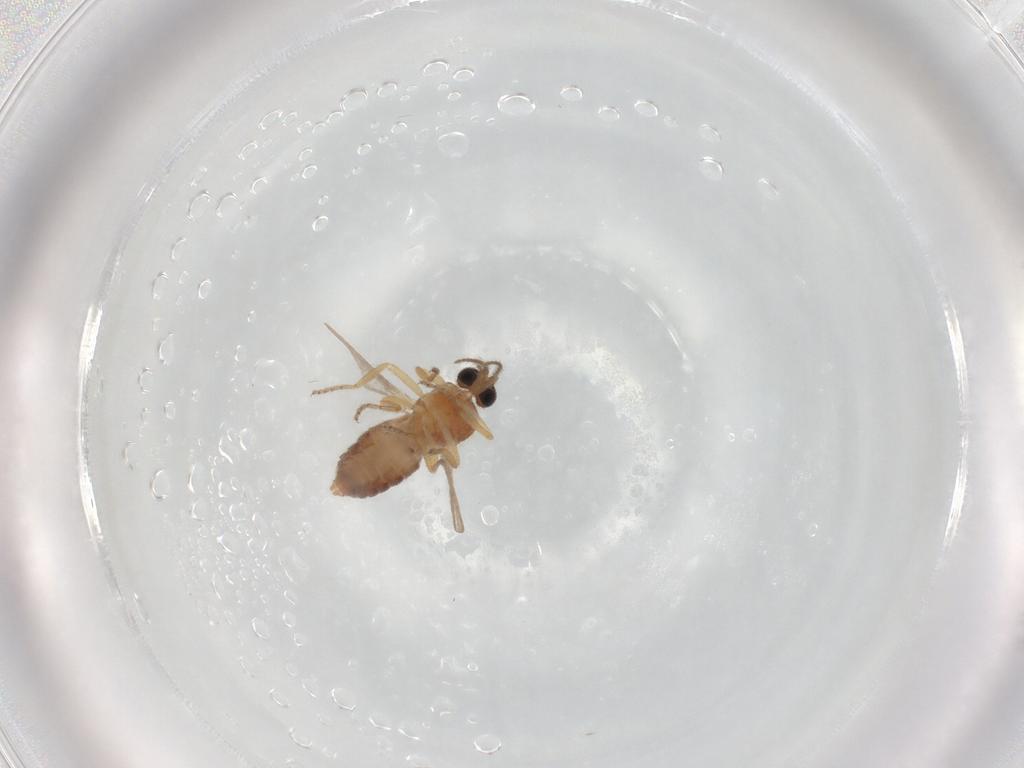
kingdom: Animalia
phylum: Arthropoda
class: Insecta
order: Diptera
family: Ceratopogonidae
